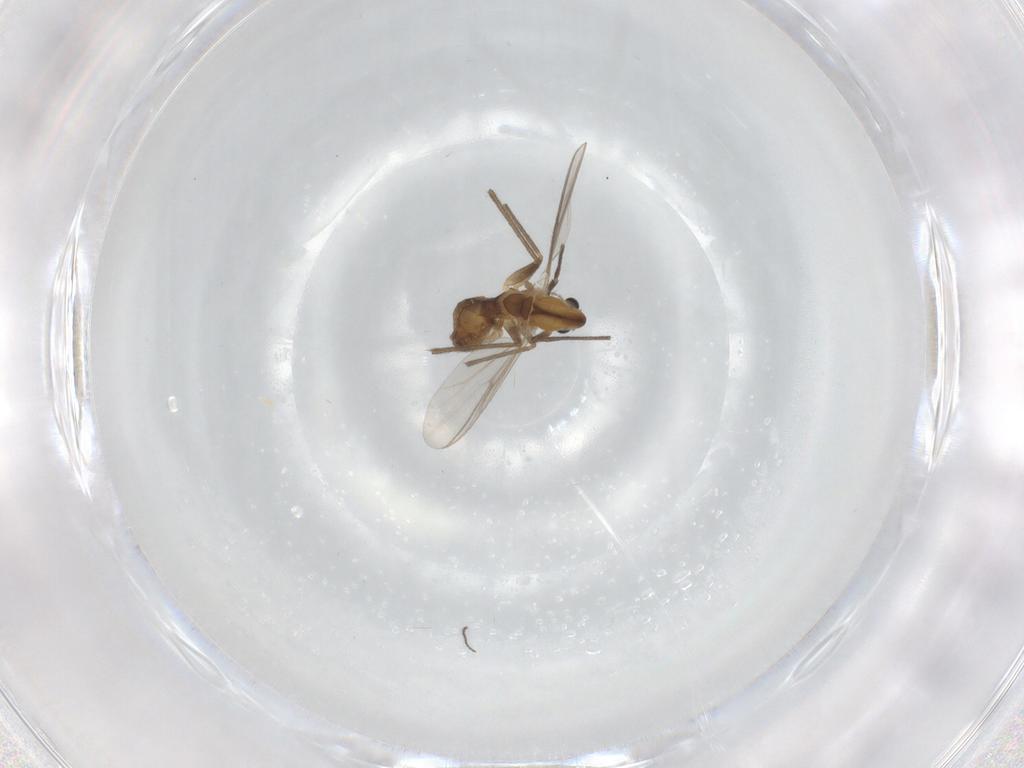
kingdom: Animalia
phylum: Arthropoda
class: Insecta
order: Diptera
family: Chironomidae
